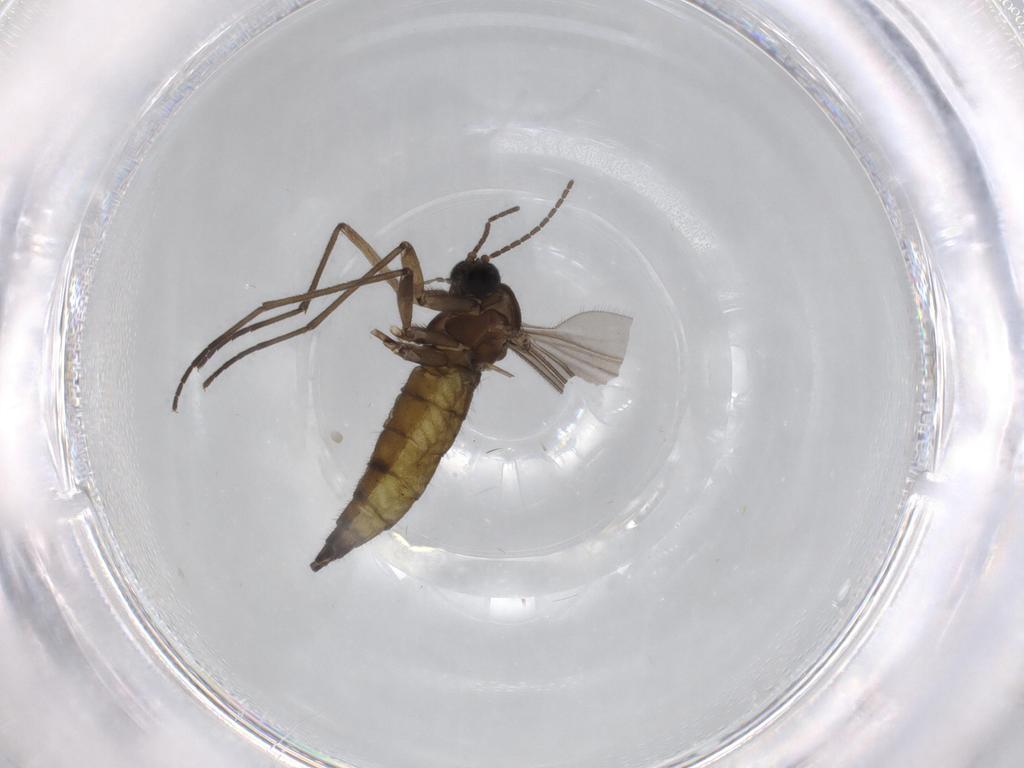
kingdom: Animalia
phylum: Arthropoda
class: Insecta
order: Diptera
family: Sciaridae
